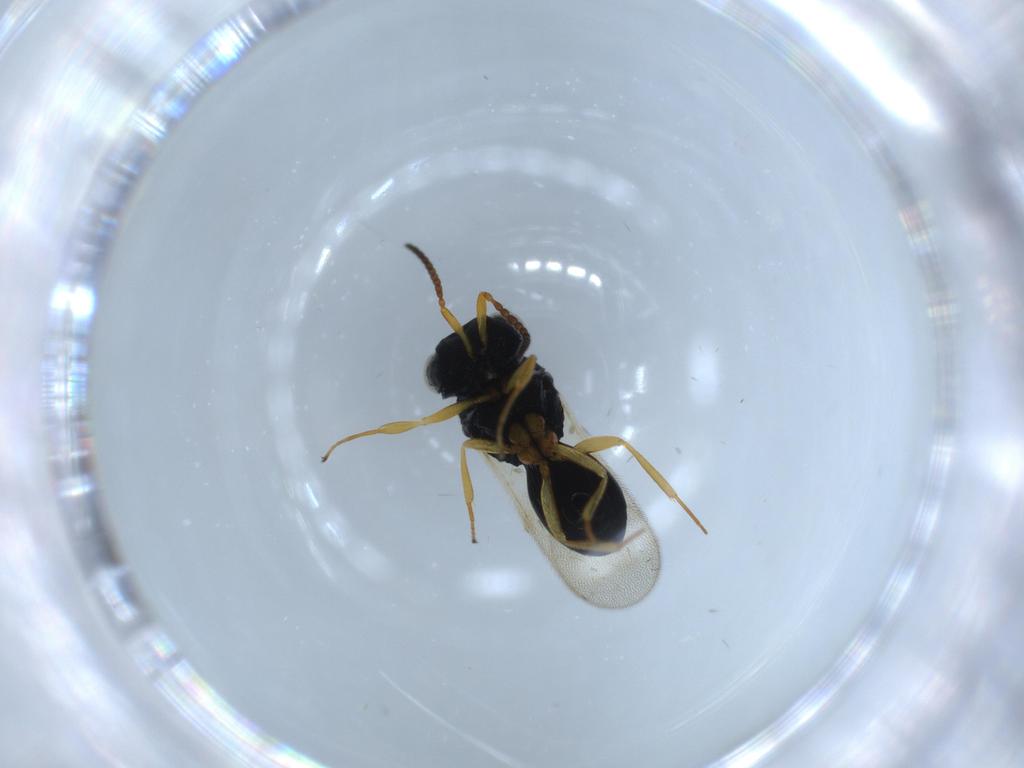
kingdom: Animalia
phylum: Arthropoda
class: Insecta
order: Hymenoptera
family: Scelionidae
